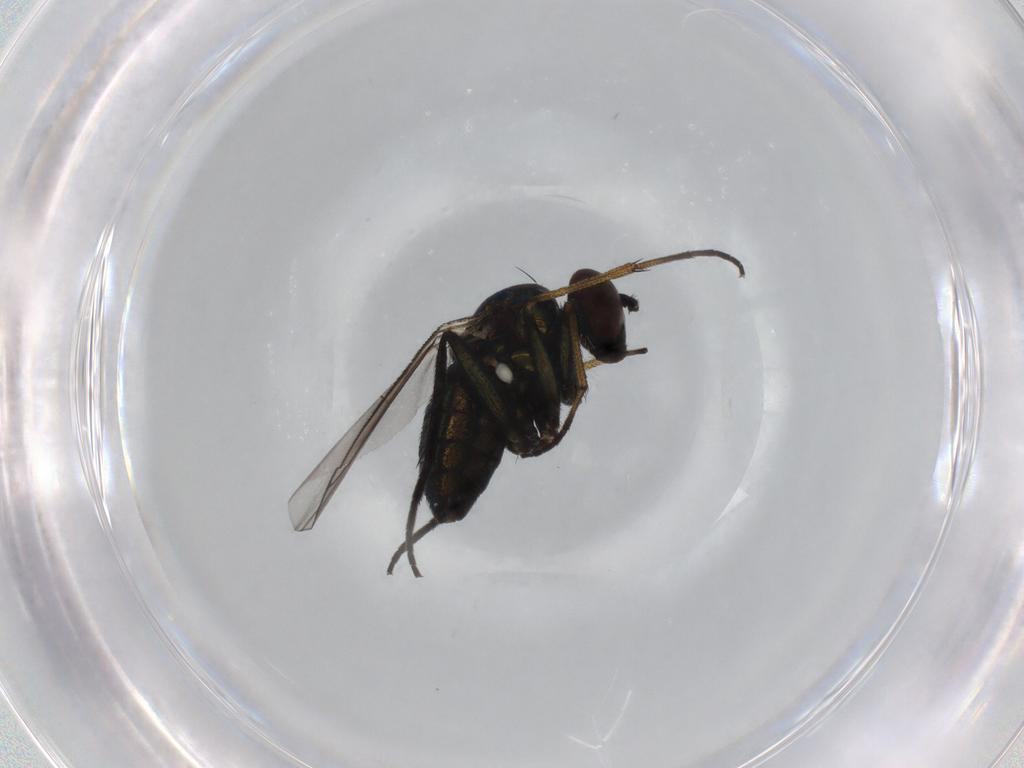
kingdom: Animalia
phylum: Arthropoda
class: Insecta
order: Diptera
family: Dolichopodidae
